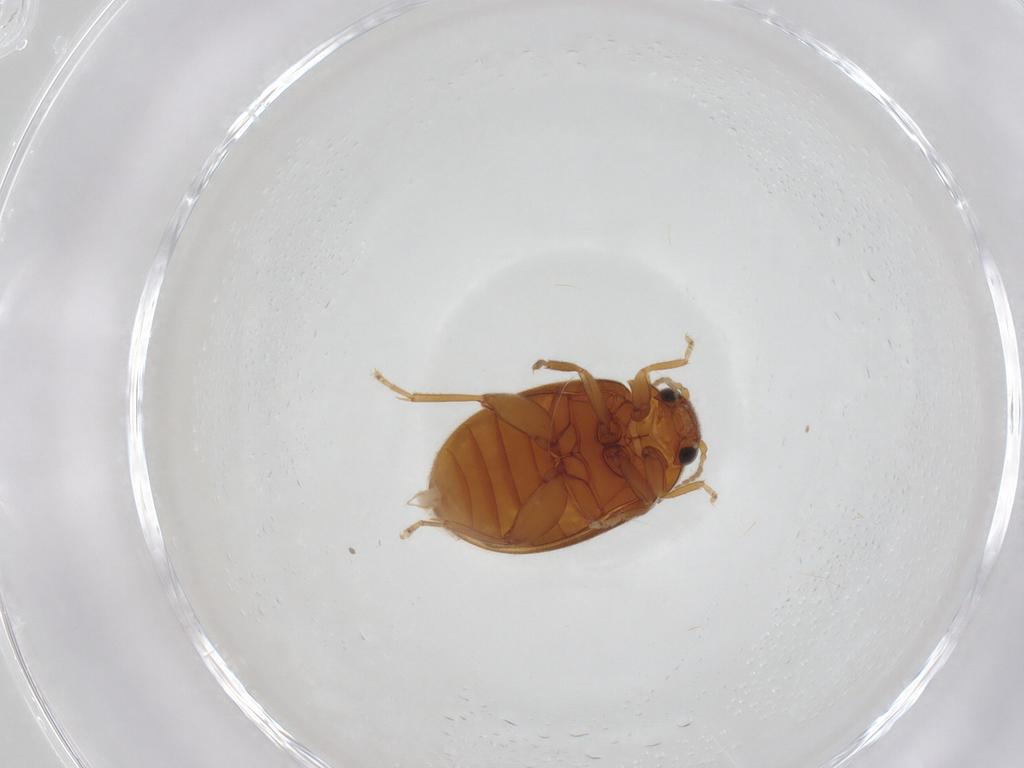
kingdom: Animalia
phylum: Arthropoda
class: Insecta
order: Coleoptera
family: Scirtidae
